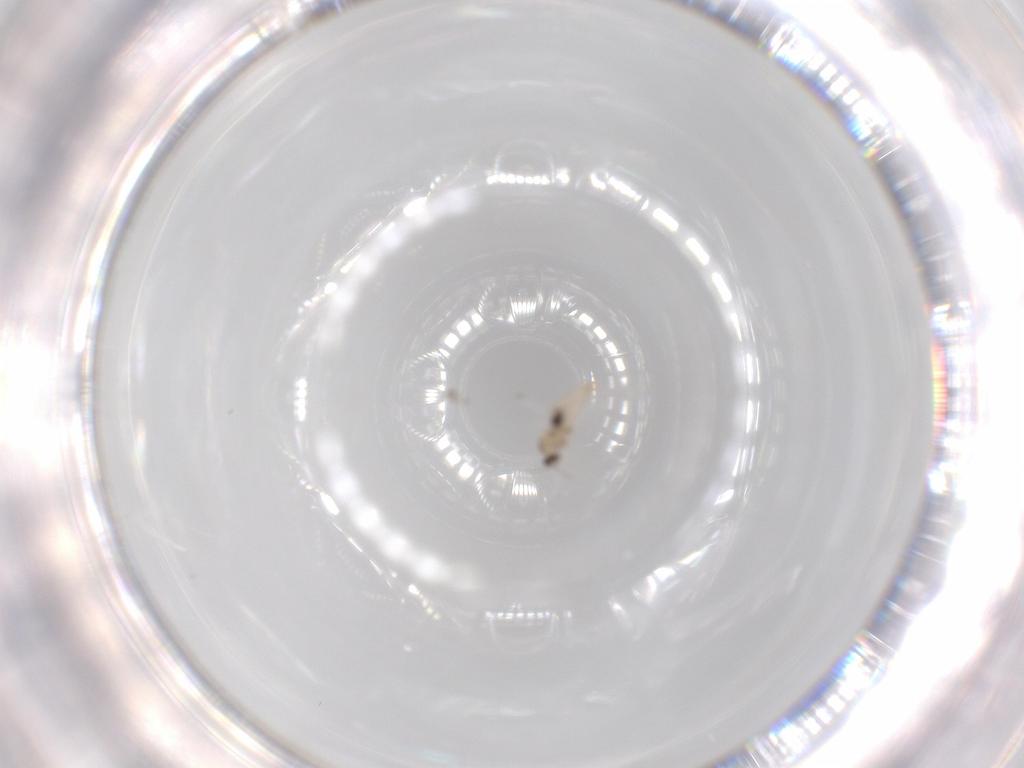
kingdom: Animalia
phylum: Arthropoda
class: Insecta
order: Diptera
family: Cecidomyiidae
